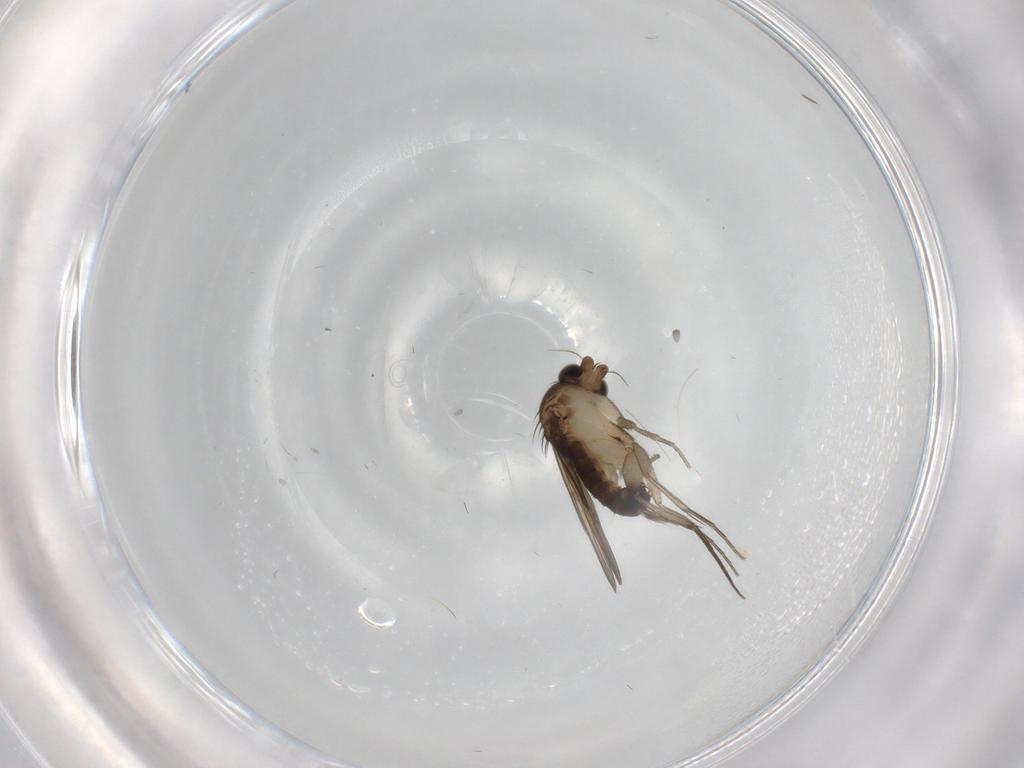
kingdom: Animalia
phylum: Arthropoda
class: Insecta
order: Diptera
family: Phoridae
